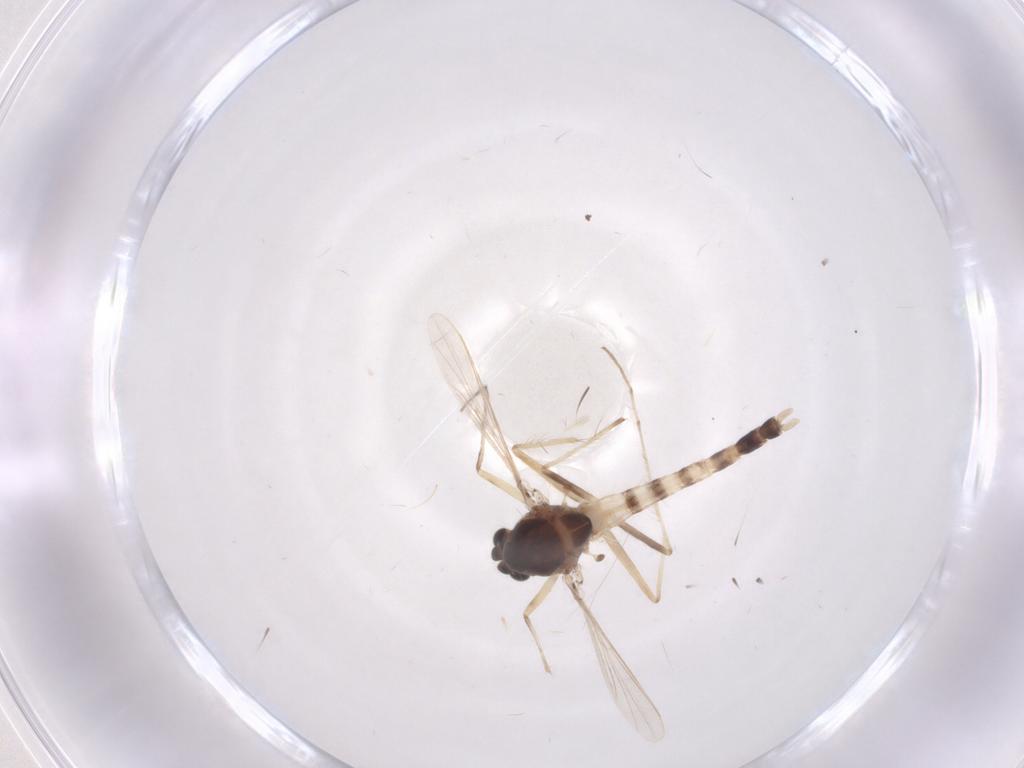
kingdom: Animalia
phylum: Arthropoda
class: Insecta
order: Diptera
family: Chironomidae
